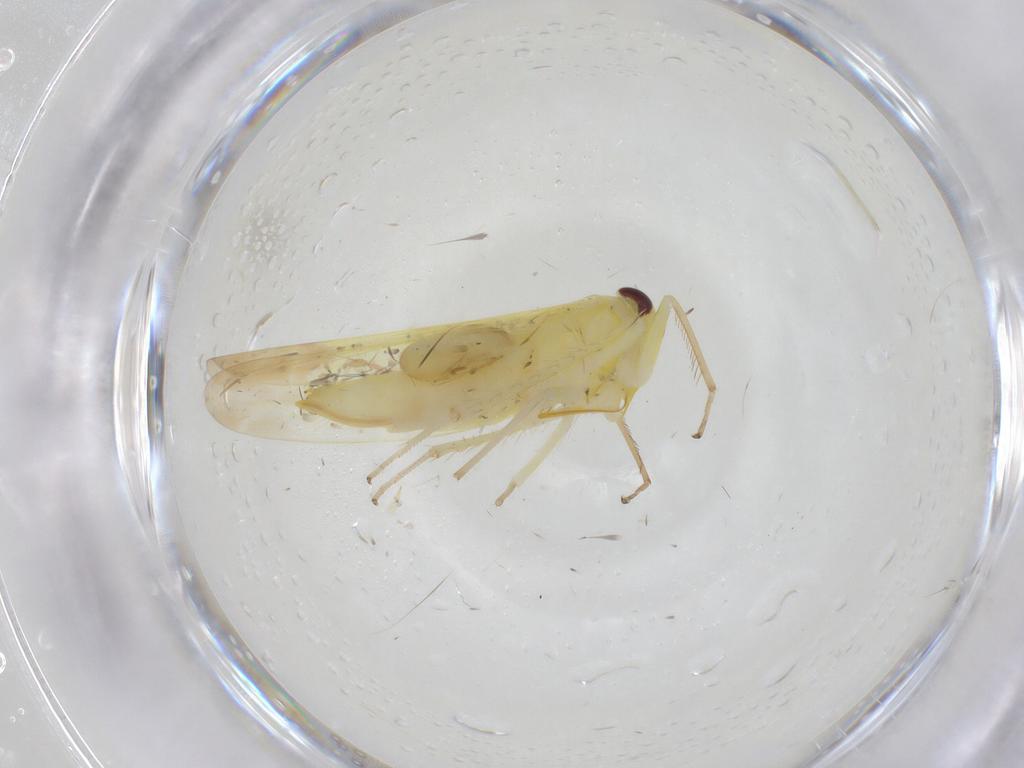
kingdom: Animalia
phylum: Arthropoda
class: Insecta
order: Hemiptera
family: Cicadellidae
